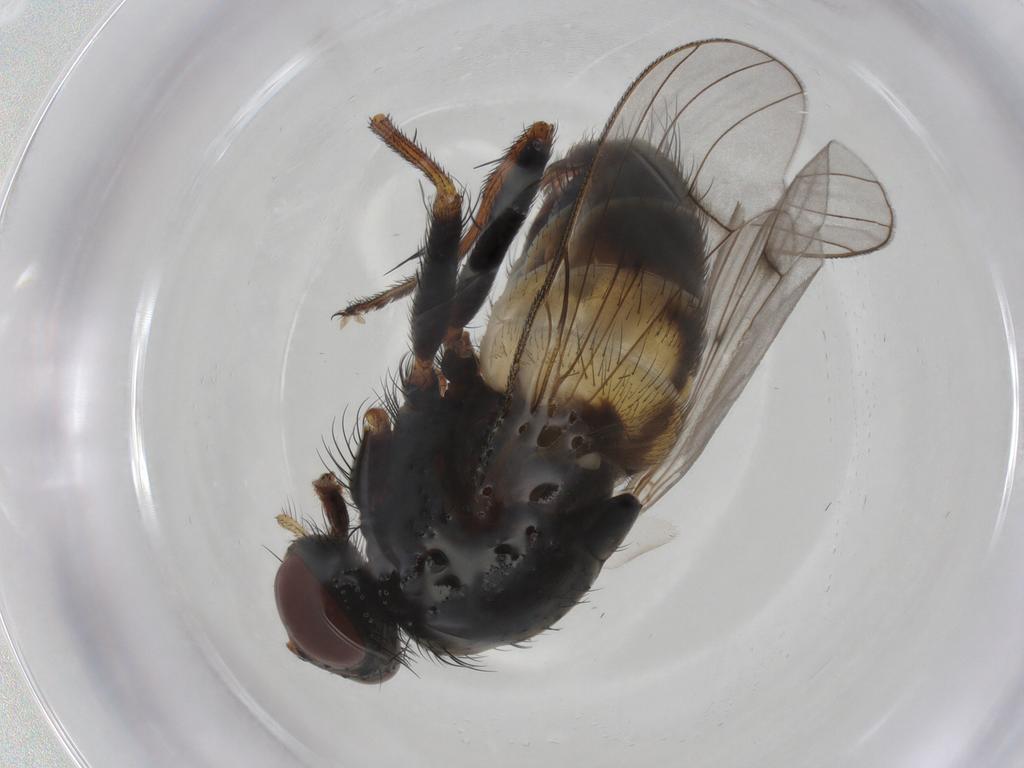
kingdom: Animalia
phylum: Arthropoda
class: Insecta
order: Diptera
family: Muscidae
